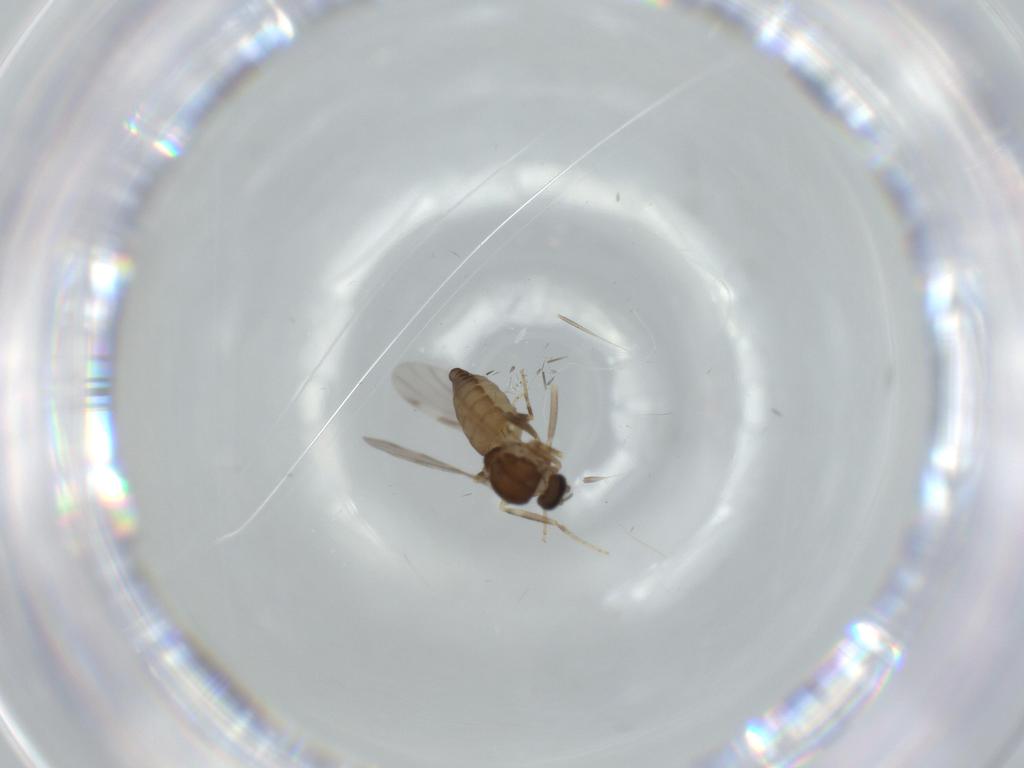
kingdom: Animalia
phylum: Arthropoda
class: Insecta
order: Diptera
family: Ceratopogonidae
